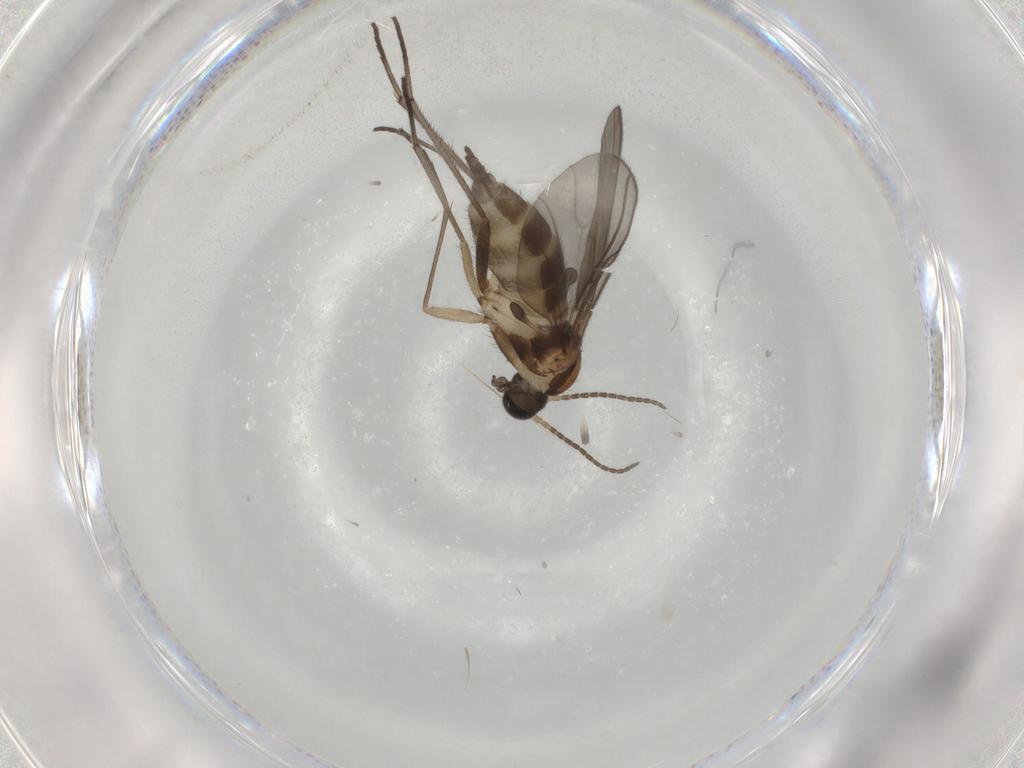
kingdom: Animalia
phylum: Arthropoda
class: Insecta
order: Diptera
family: Sciaridae
